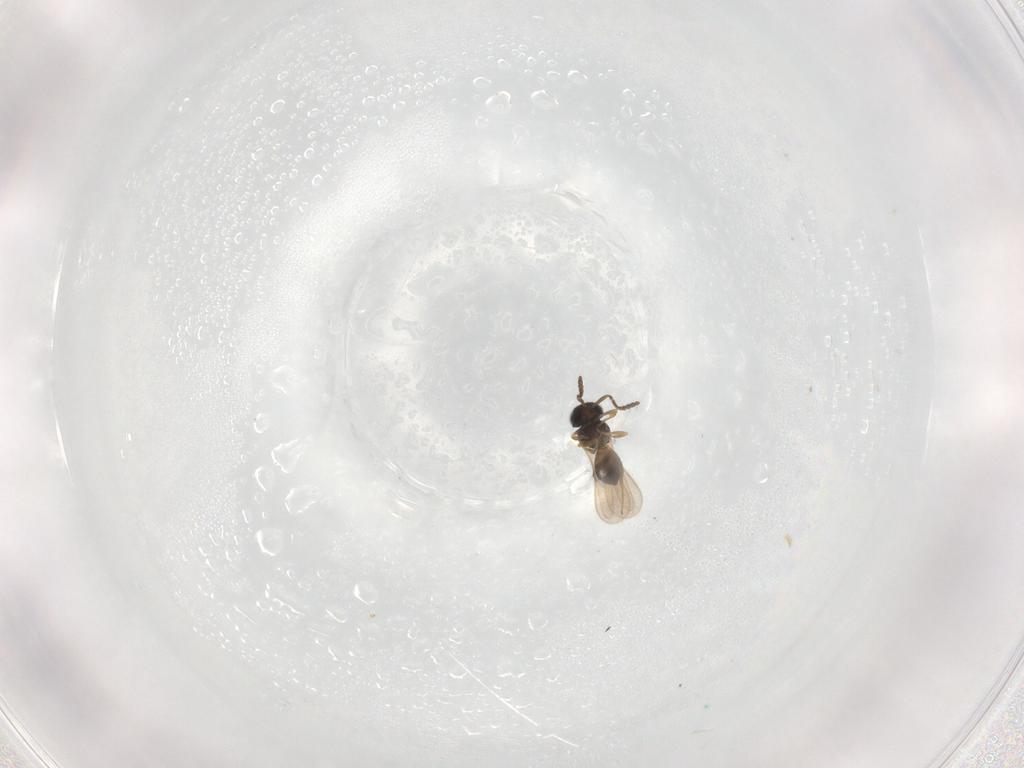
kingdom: Animalia
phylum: Arthropoda
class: Insecta
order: Hymenoptera
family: Scelionidae
